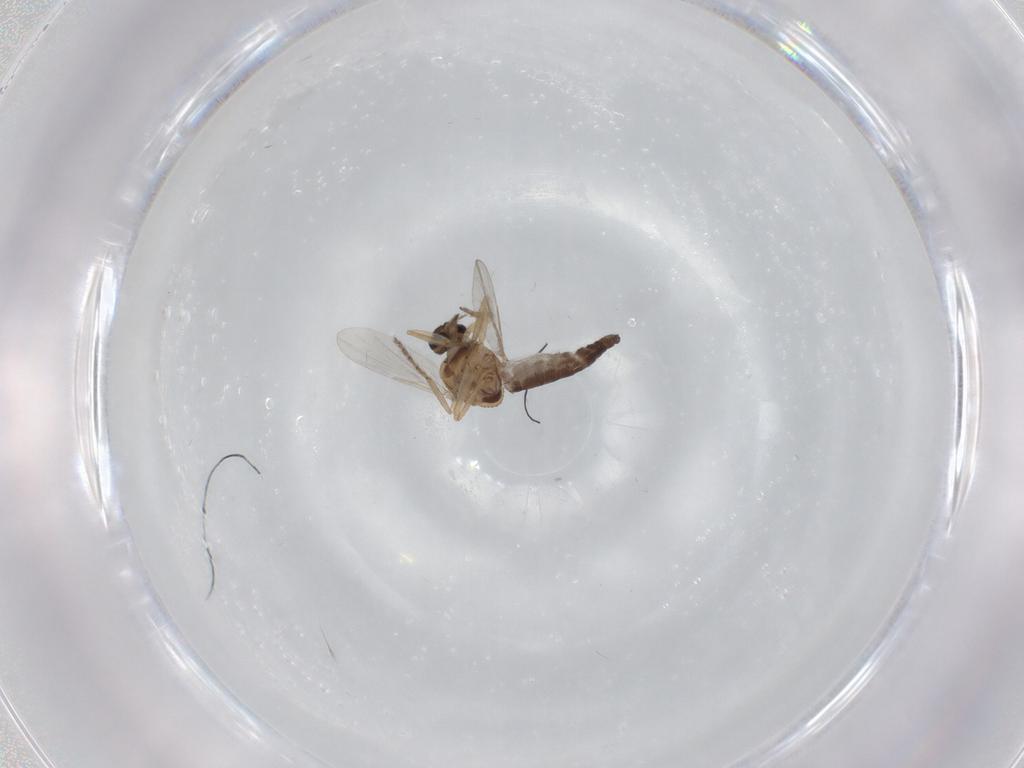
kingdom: Animalia
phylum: Arthropoda
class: Insecta
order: Diptera
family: Ceratopogonidae
